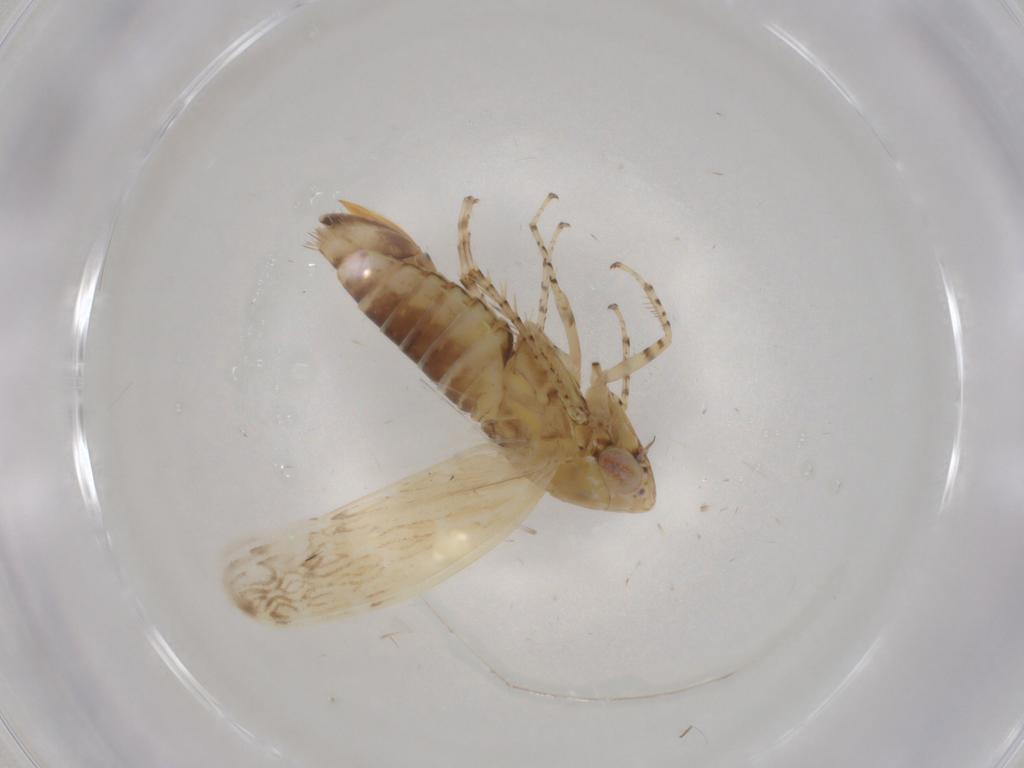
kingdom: Animalia
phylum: Arthropoda
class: Insecta
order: Hemiptera
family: Cicadellidae
